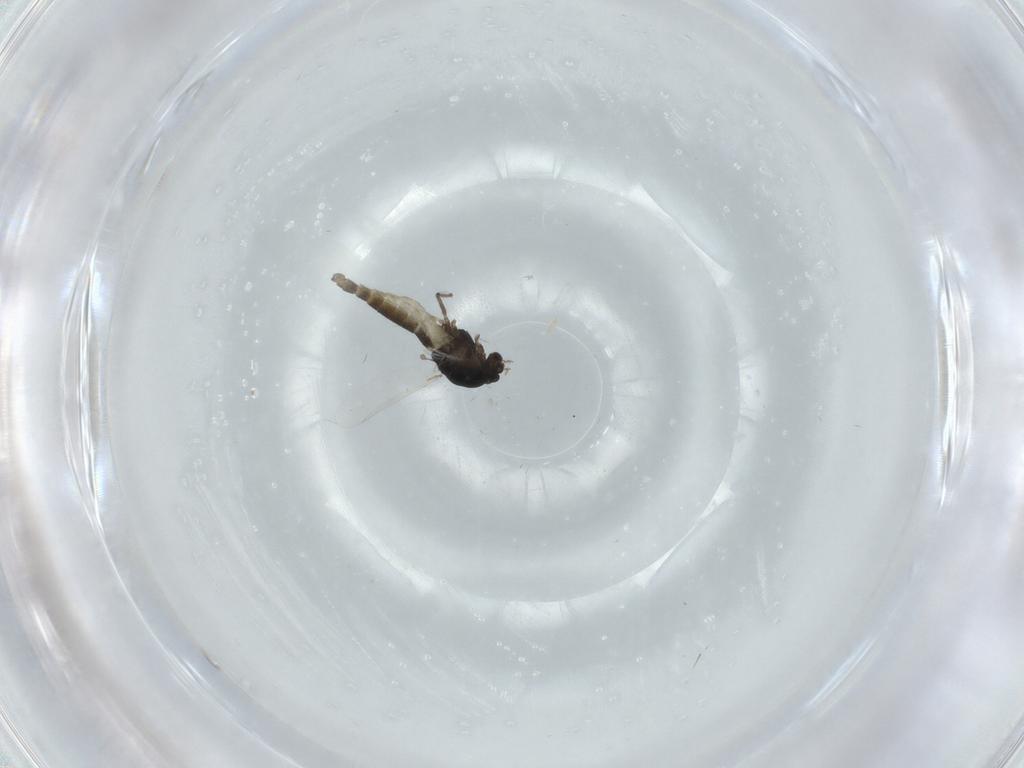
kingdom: Animalia
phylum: Arthropoda
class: Insecta
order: Diptera
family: Chironomidae
